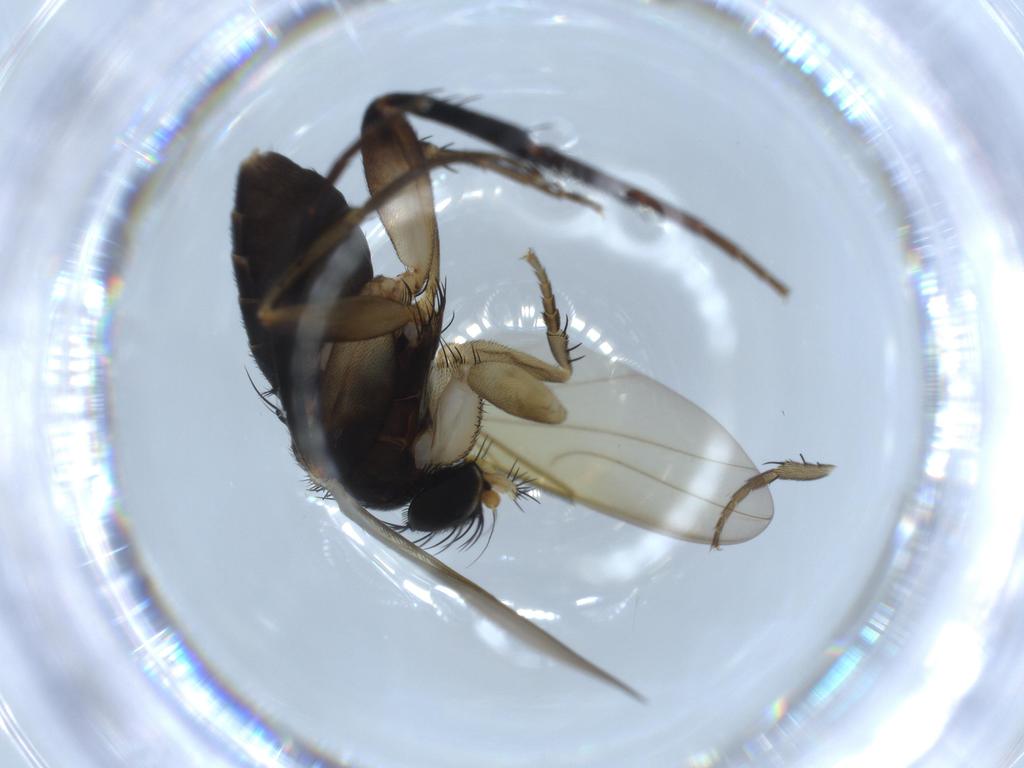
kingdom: Animalia
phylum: Arthropoda
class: Insecta
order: Diptera
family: Phoridae
